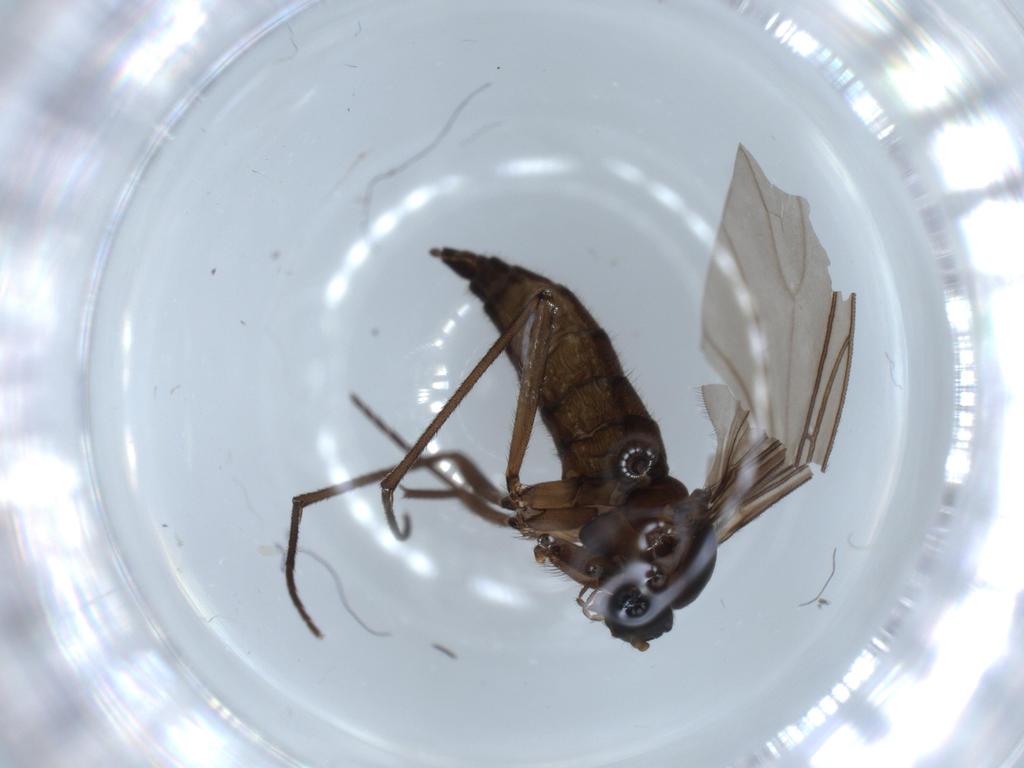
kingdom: Animalia
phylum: Arthropoda
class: Insecta
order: Diptera
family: Sciaridae
